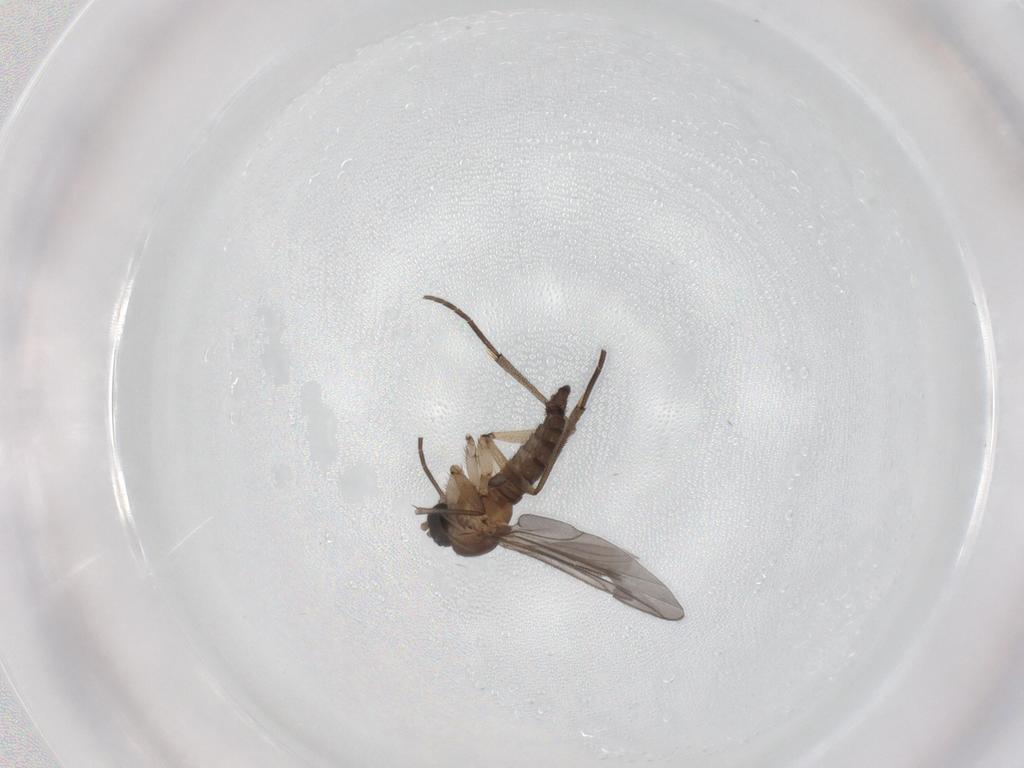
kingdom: Animalia
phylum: Arthropoda
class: Insecta
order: Diptera
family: Sciaridae
